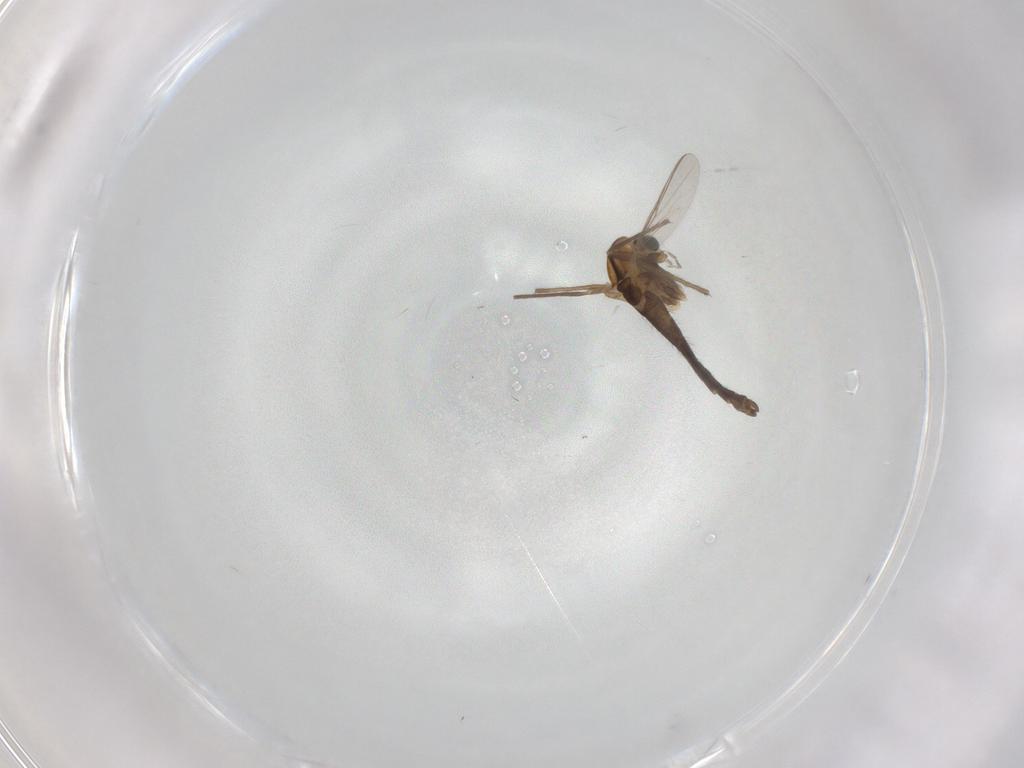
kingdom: Animalia
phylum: Arthropoda
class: Insecta
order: Diptera
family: Chironomidae
